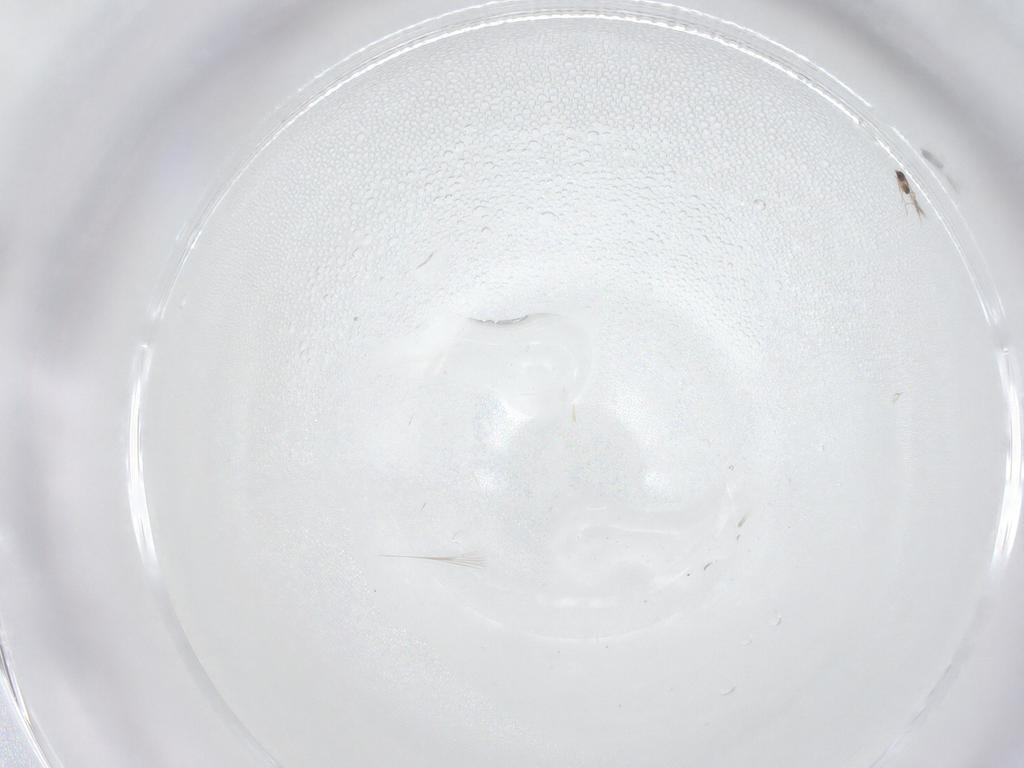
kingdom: Animalia
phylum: Arthropoda
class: Insecta
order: Hymenoptera
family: Mymaridae
